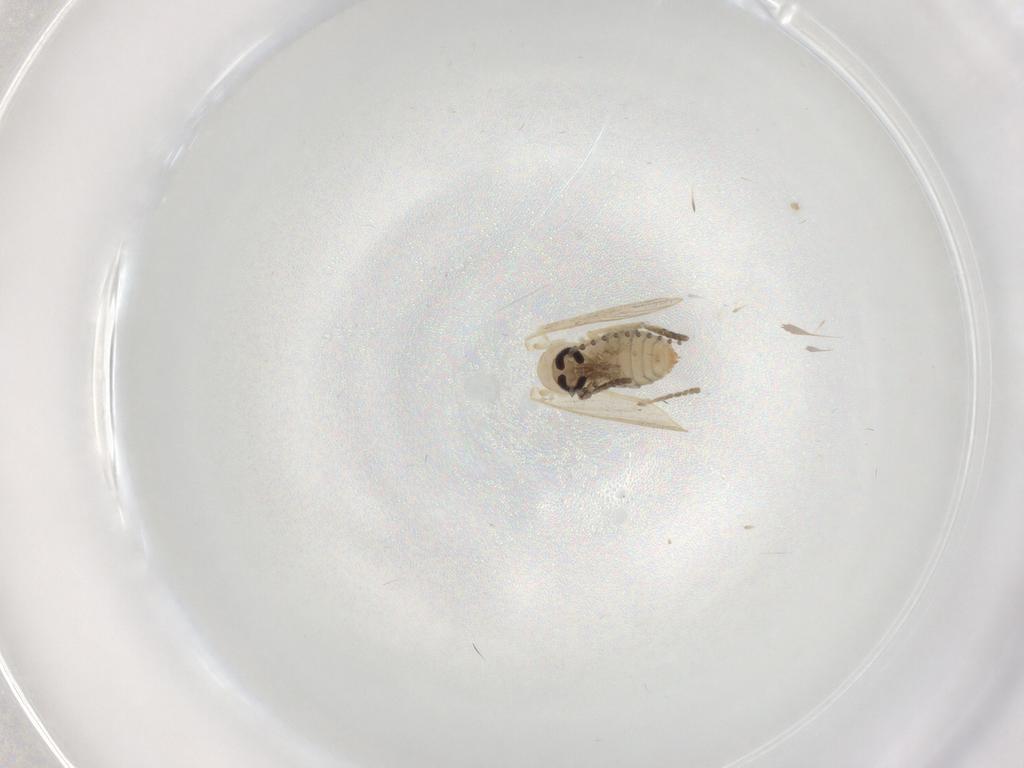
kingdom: Animalia
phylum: Arthropoda
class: Insecta
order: Diptera
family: Psychodidae
